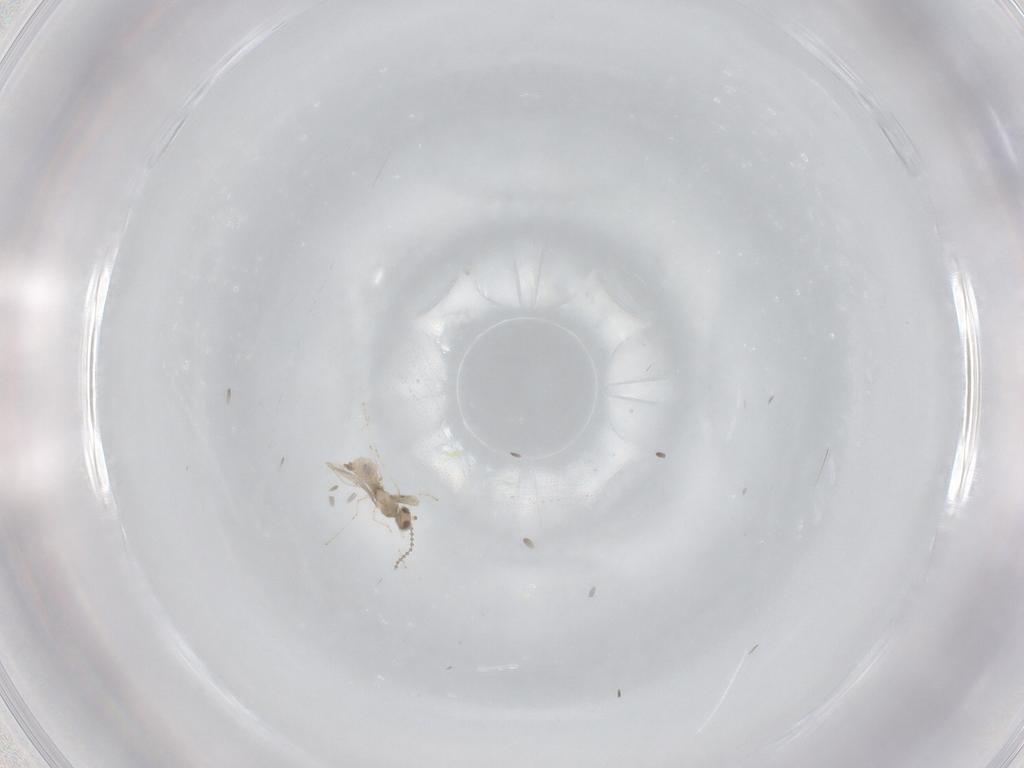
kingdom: Animalia
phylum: Arthropoda
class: Insecta
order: Diptera
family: Cecidomyiidae
